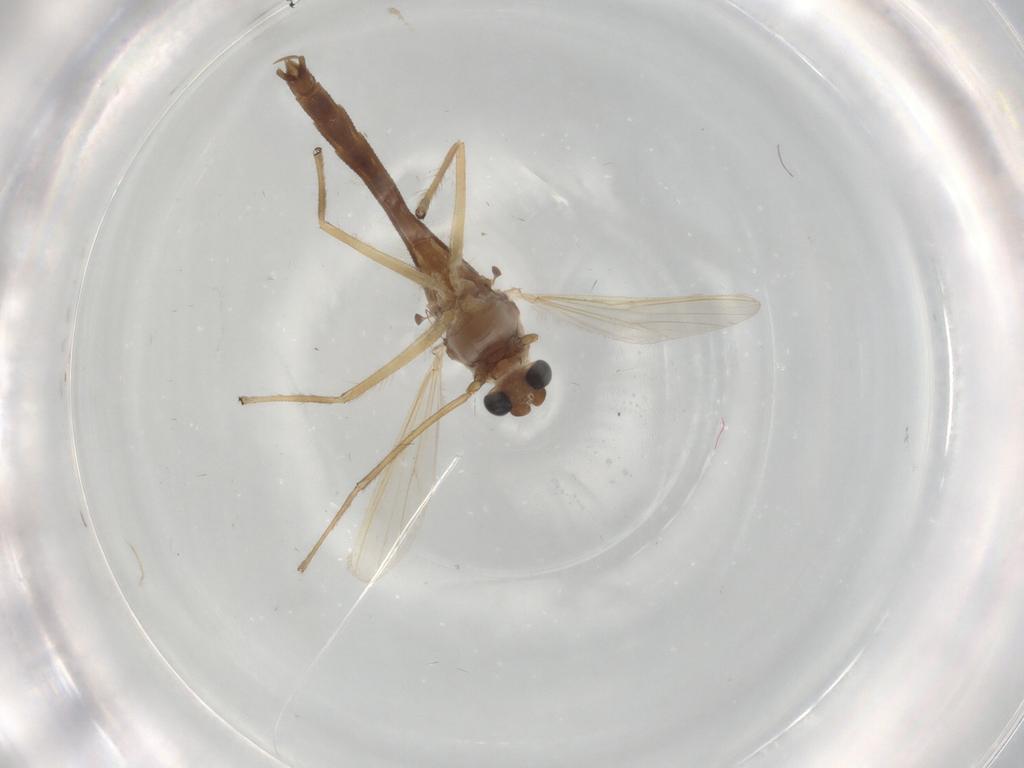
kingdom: Animalia
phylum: Arthropoda
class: Insecta
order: Diptera
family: Chironomidae
